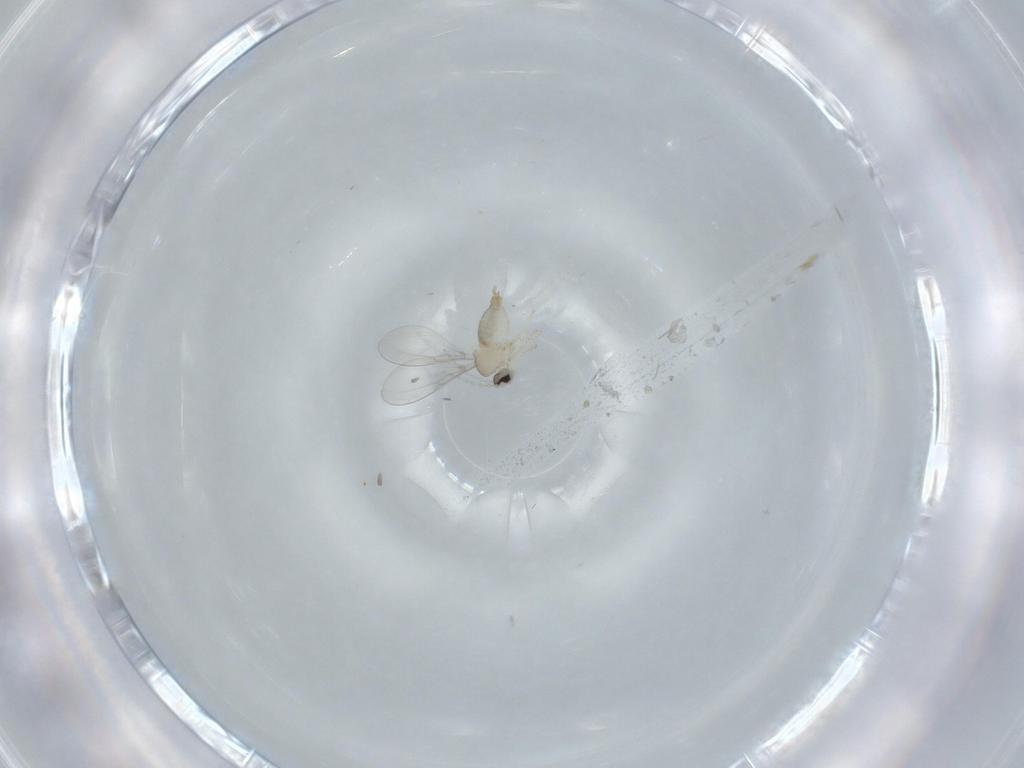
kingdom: Animalia
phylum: Arthropoda
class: Insecta
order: Diptera
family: Cecidomyiidae
